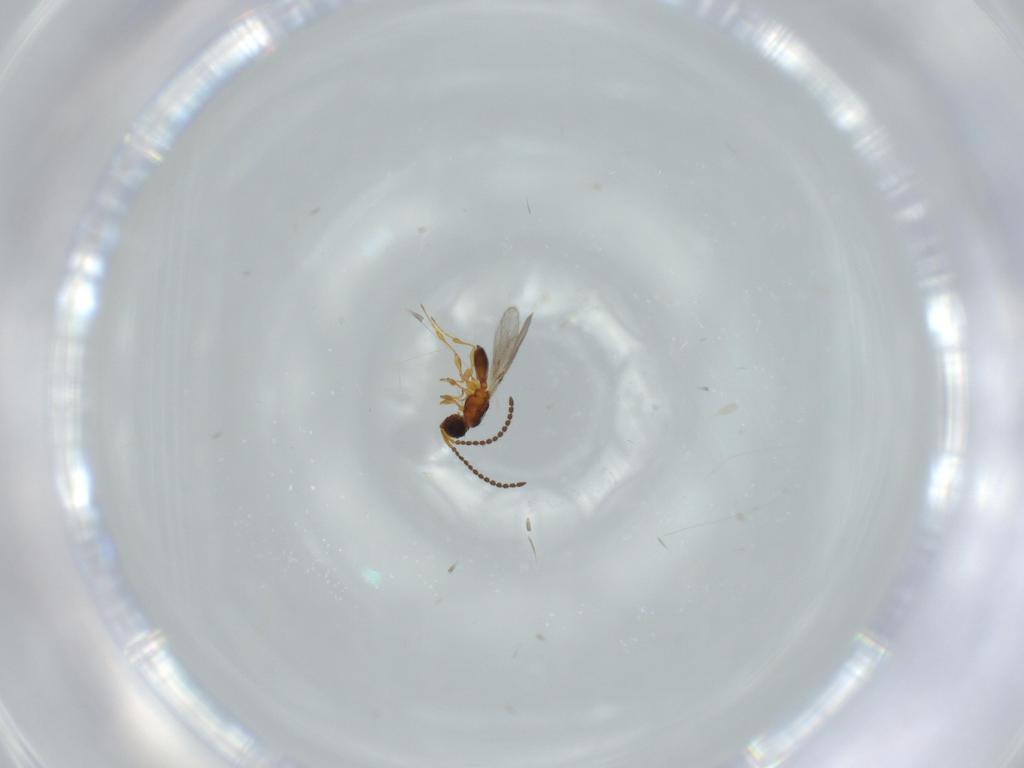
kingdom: Animalia
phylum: Arthropoda
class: Insecta
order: Hymenoptera
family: Diapriidae
